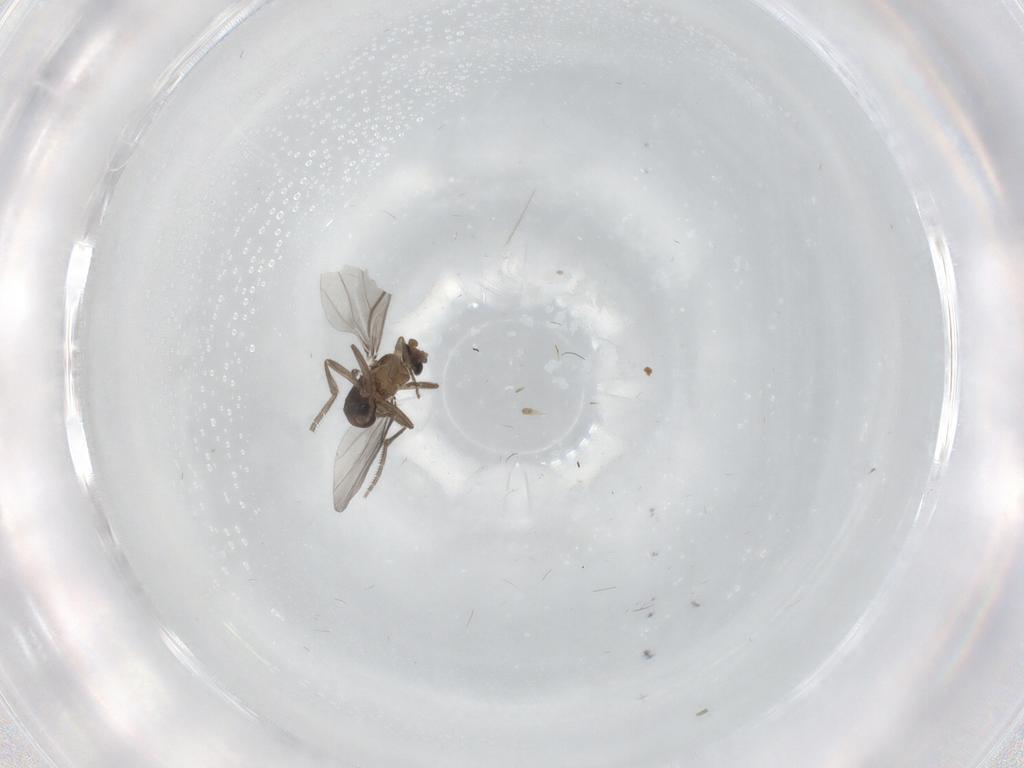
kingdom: Animalia
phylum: Arthropoda
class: Insecta
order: Diptera
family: Phoridae
